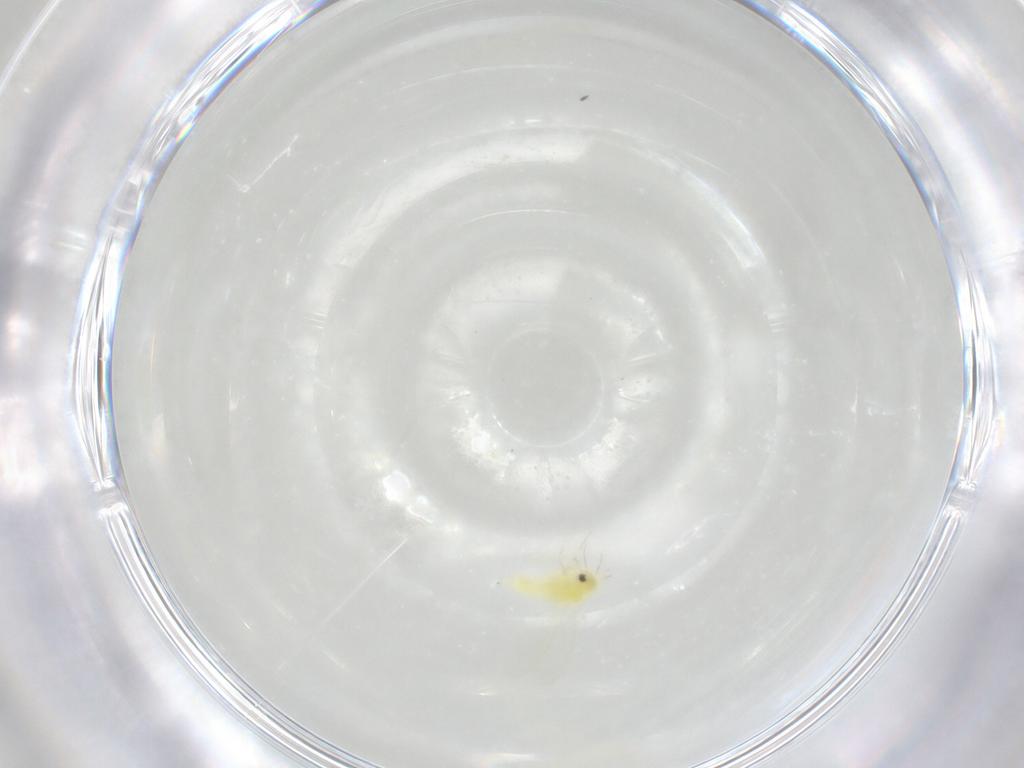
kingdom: Animalia
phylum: Arthropoda
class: Insecta
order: Hemiptera
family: Aleyrodidae
